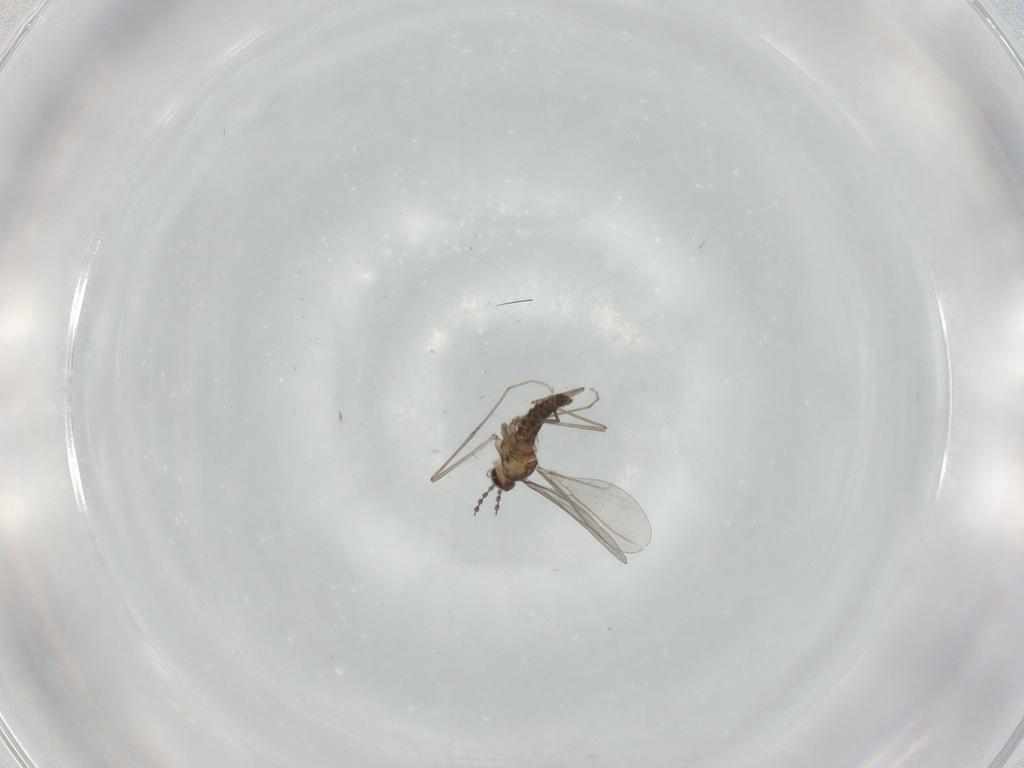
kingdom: Animalia
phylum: Arthropoda
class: Insecta
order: Diptera
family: Cecidomyiidae
